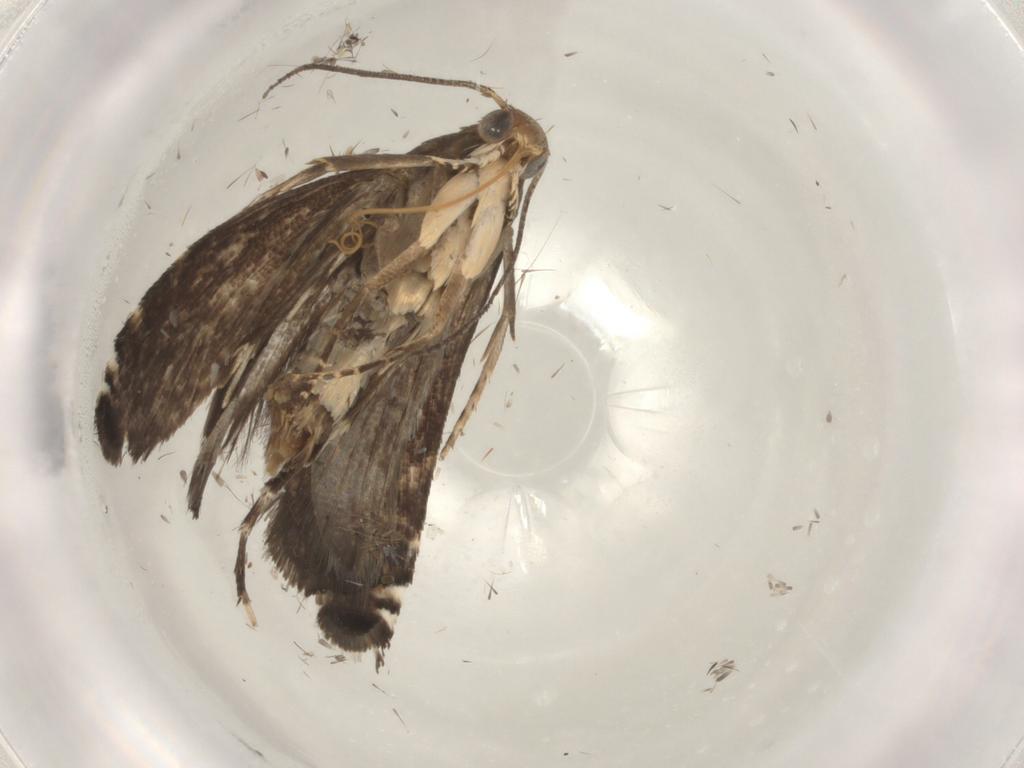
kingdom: Animalia
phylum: Arthropoda
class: Insecta
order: Lepidoptera
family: Glyphipterigidae
